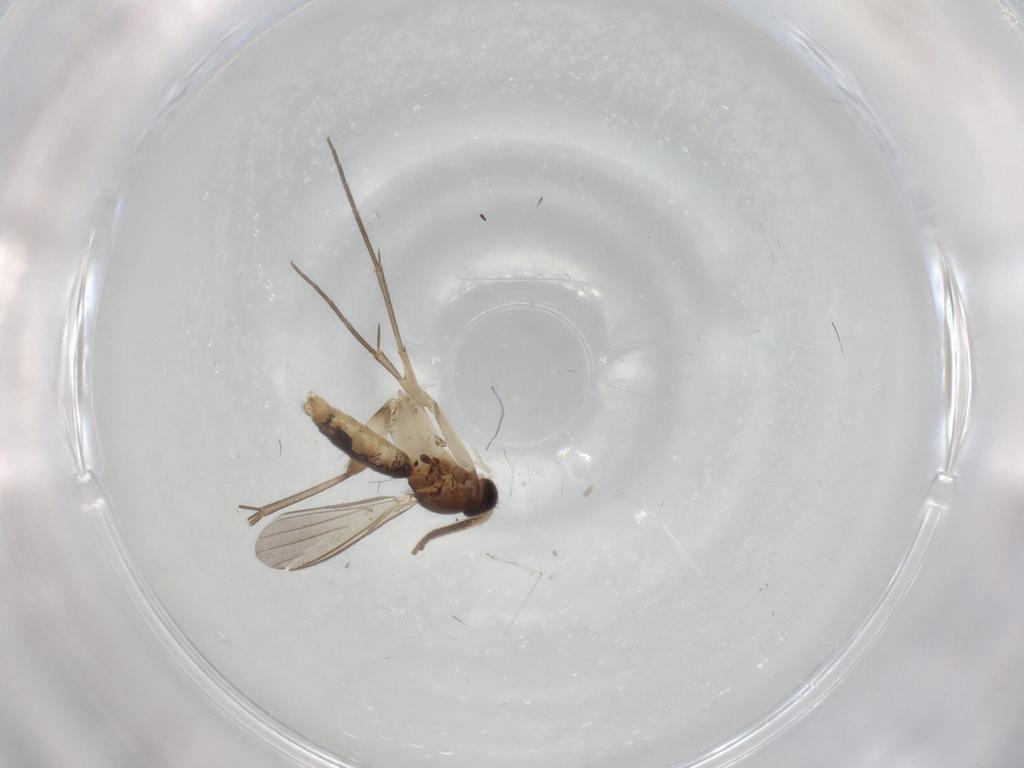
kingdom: Animalia
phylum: Arthropoda
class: Insecta
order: Diptera
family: Mycetophilidae
